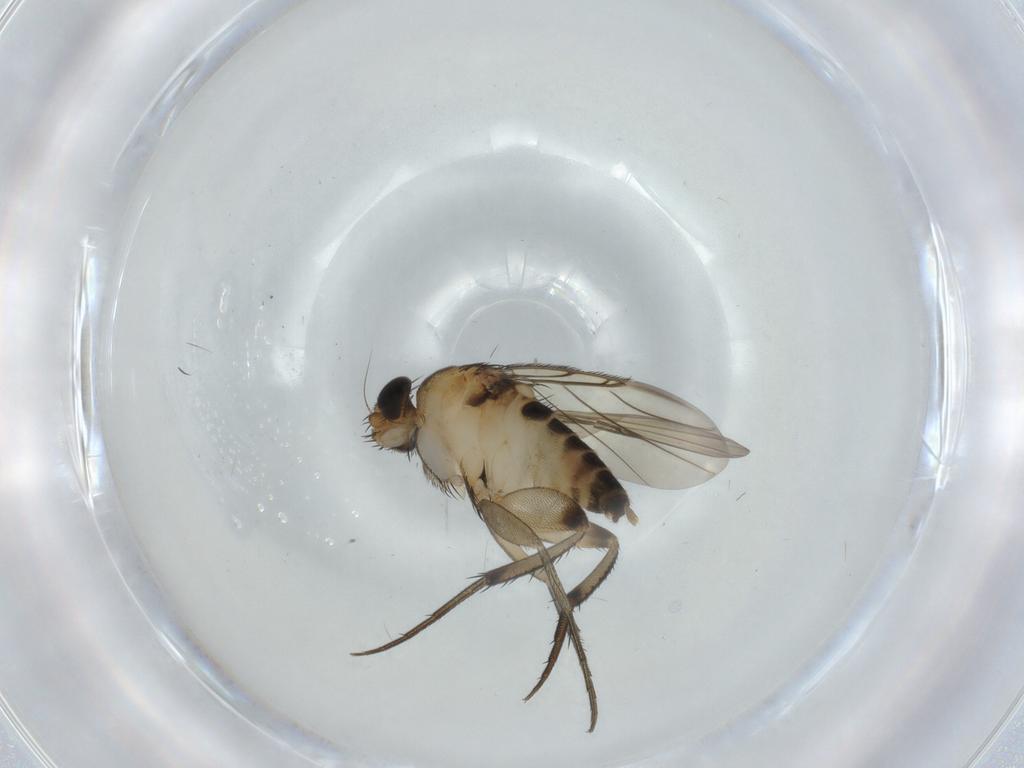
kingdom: Animalia
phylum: Arthropoda
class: Insecta
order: Diptera
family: Phoridae
